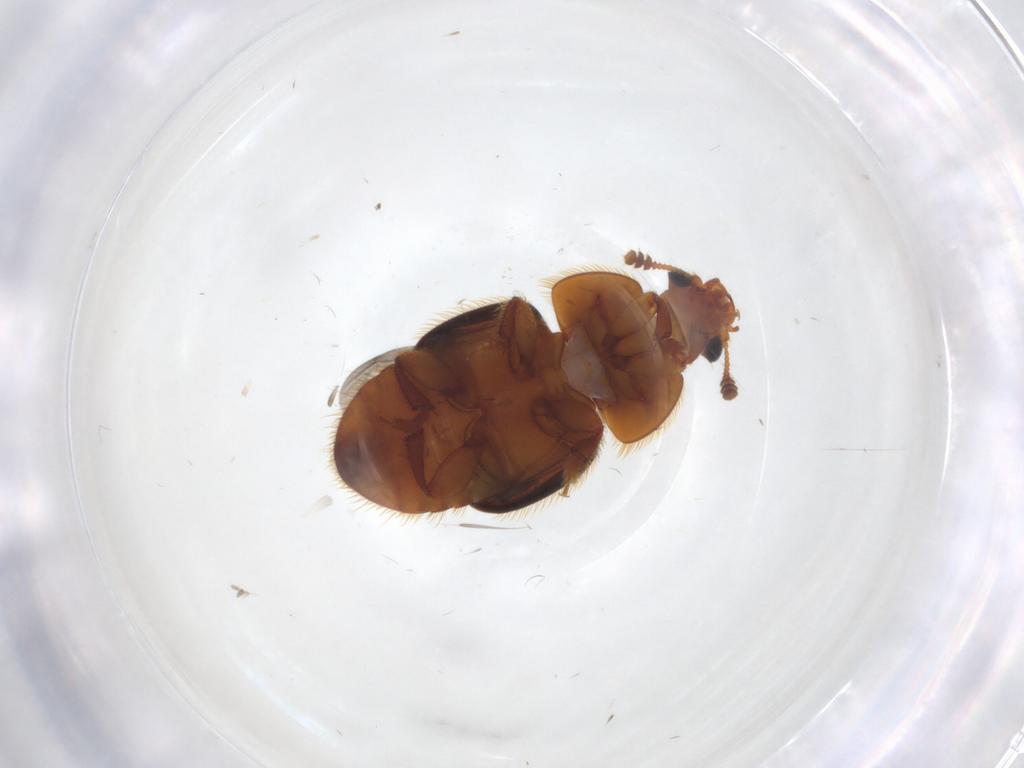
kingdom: Animalia
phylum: Arthropoda
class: Insecta
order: Coleoptera
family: Nitidulidae
